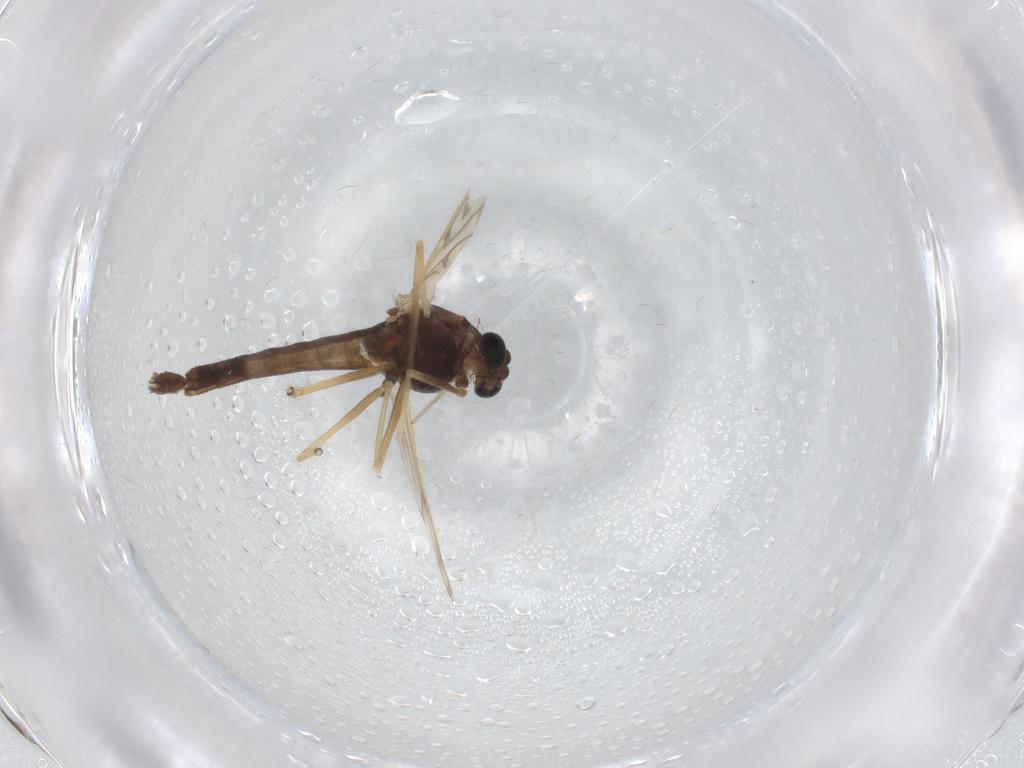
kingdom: Animalia
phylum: Arthropoda
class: Insecta
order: Diptera
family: Chironomidae
